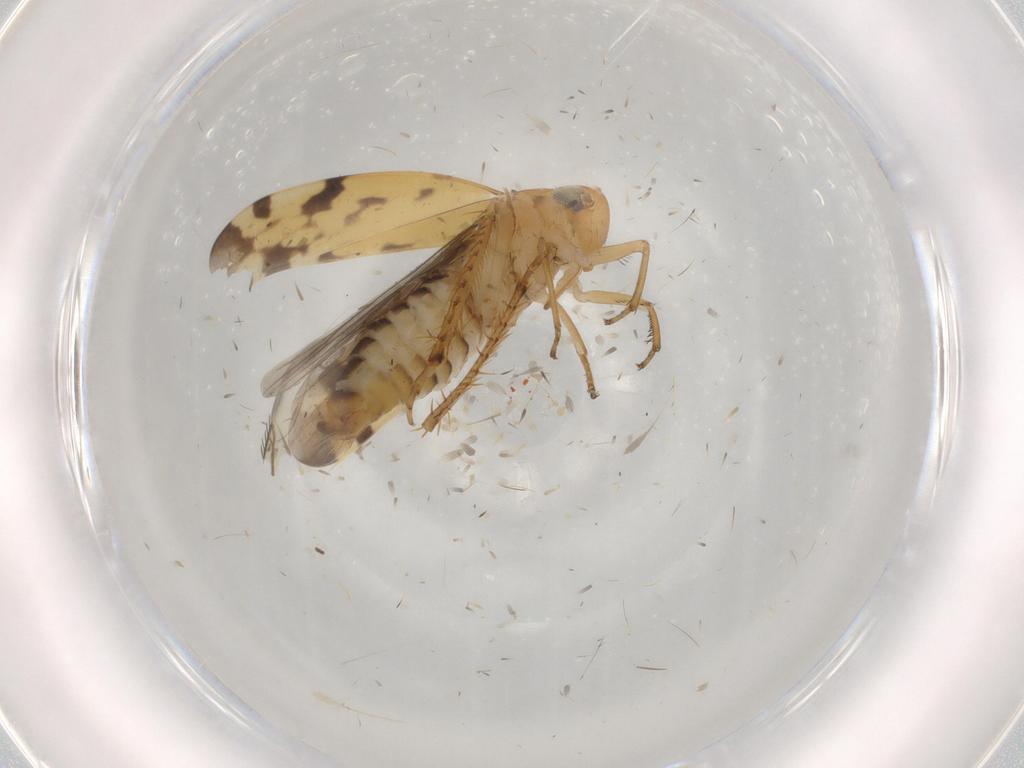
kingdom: Animalia
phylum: Arthropoda
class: Insecta
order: Hemiptera
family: Cicadellidae
